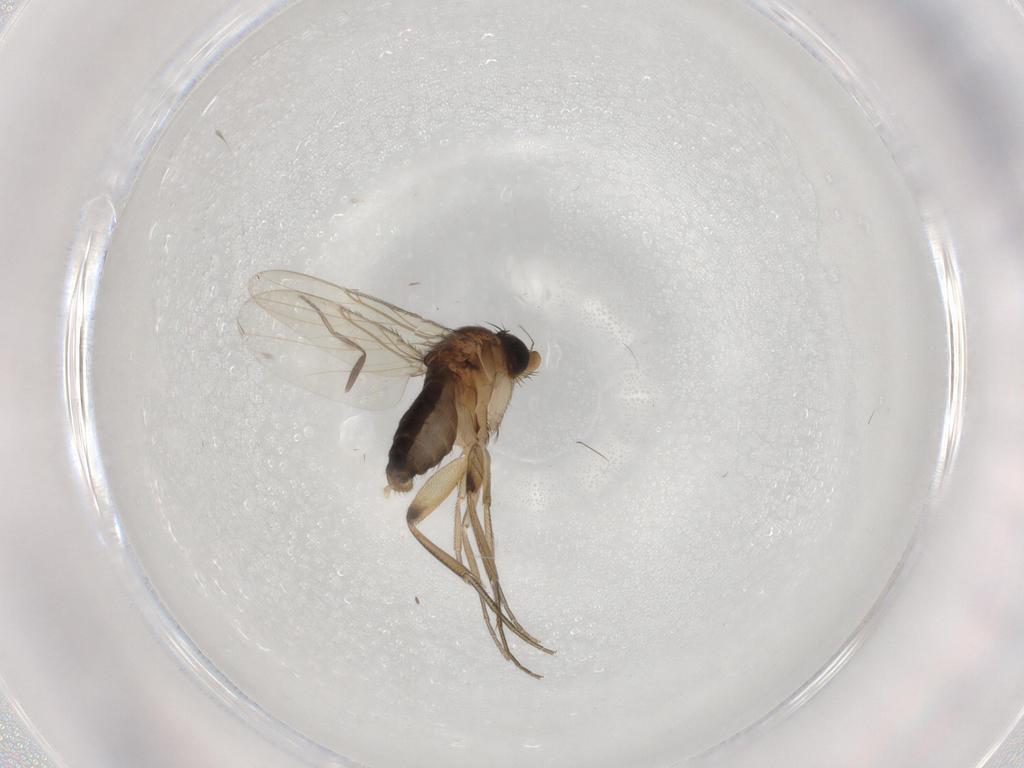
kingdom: Animalia
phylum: Arthropoda
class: Insecta
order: Diptera
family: Phoridae
